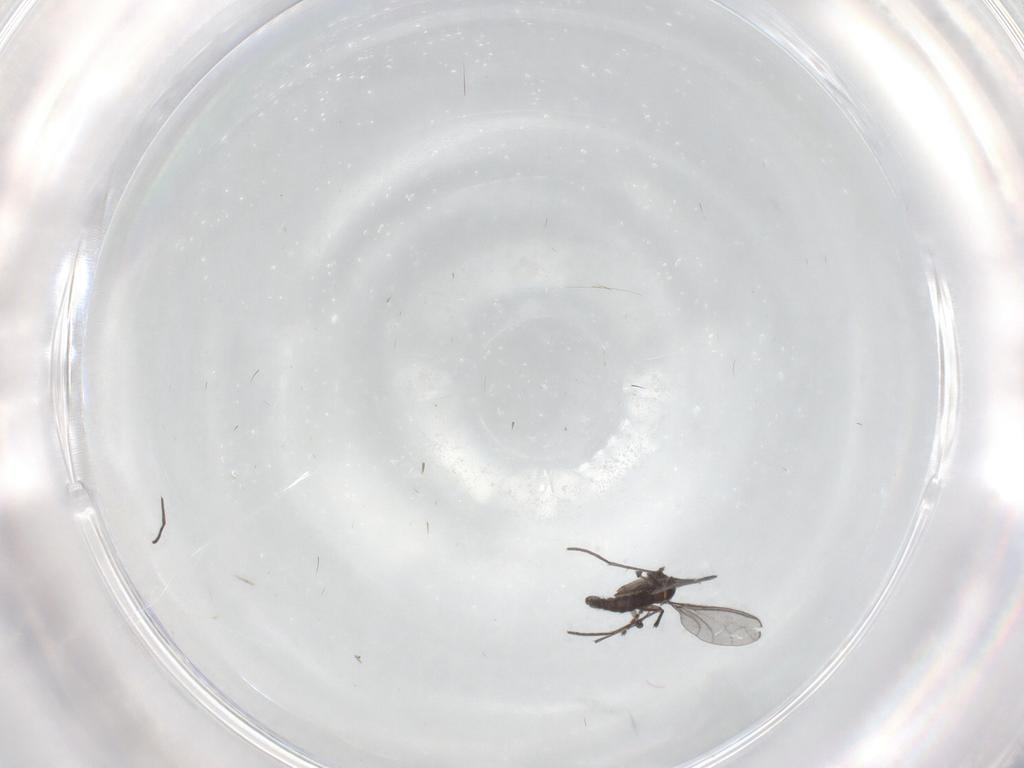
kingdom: Animalia
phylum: Arthropoda
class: Insecta
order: Diptera
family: Cecidomyiidae
